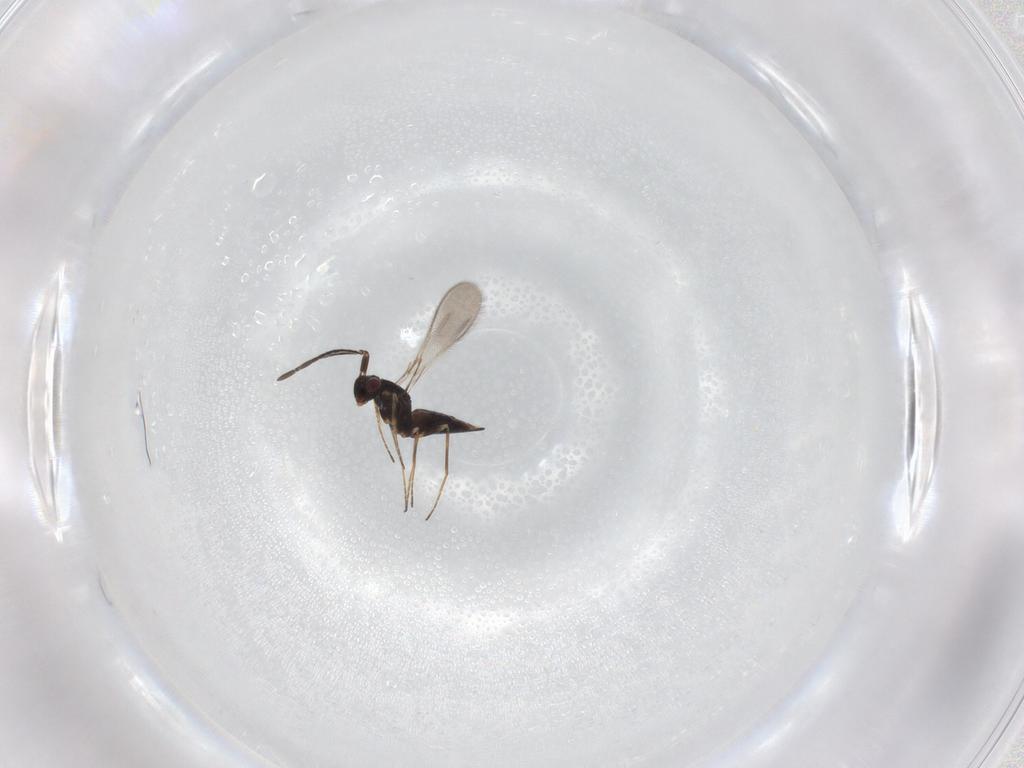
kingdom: Animalia
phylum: Arthropoda
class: Insecta
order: Hymenoptera
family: Mymaridae
